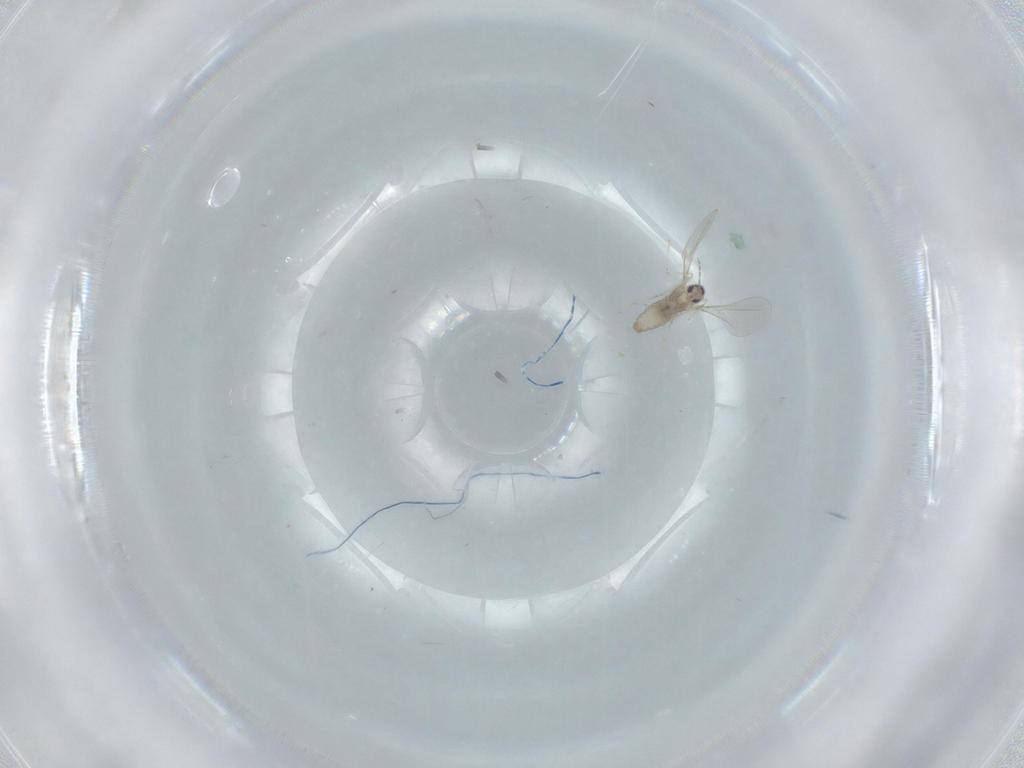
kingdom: Animalia
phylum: Arthropoda
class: Insecta
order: Diptera
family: Cecidomyiidae
